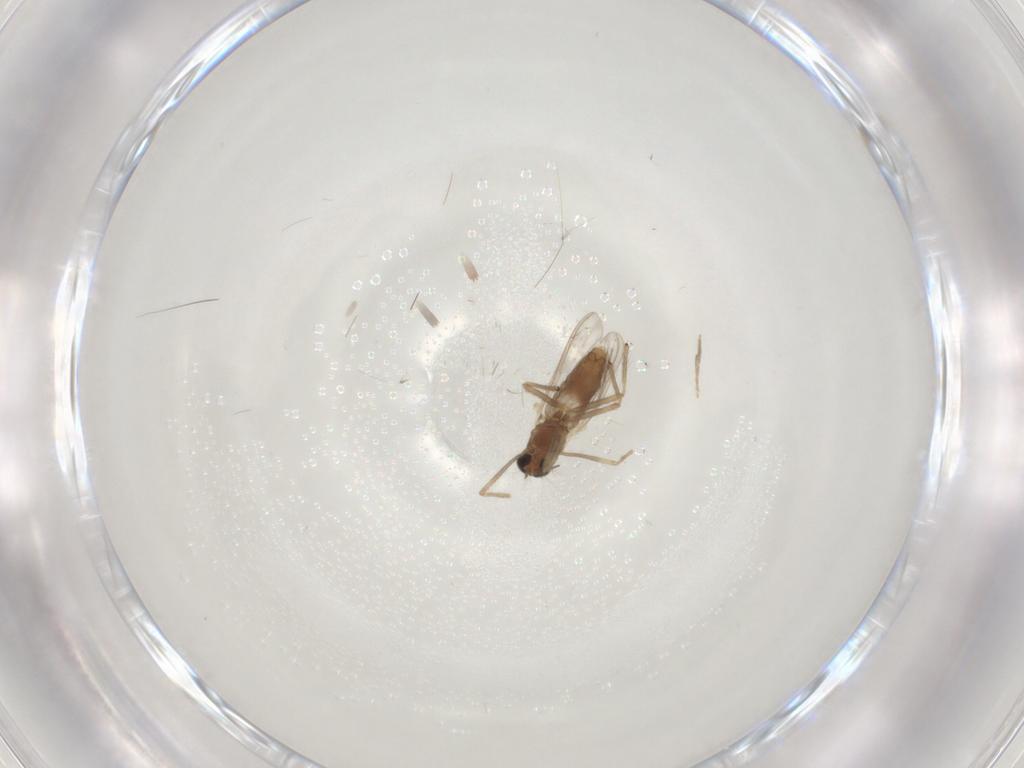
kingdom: Animalia
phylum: Arthropoda
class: Insecta
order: Diptera
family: Chironomidae
